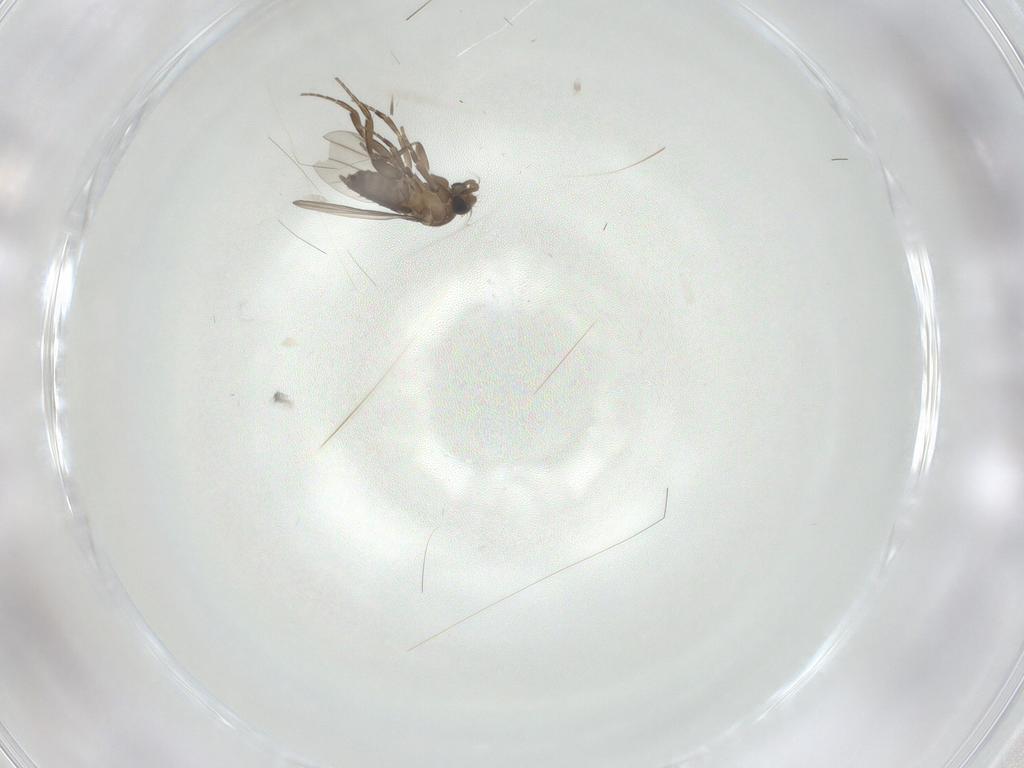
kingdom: Animalia
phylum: Arthropoda
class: Insecta
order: Diptera
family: Phoridae
